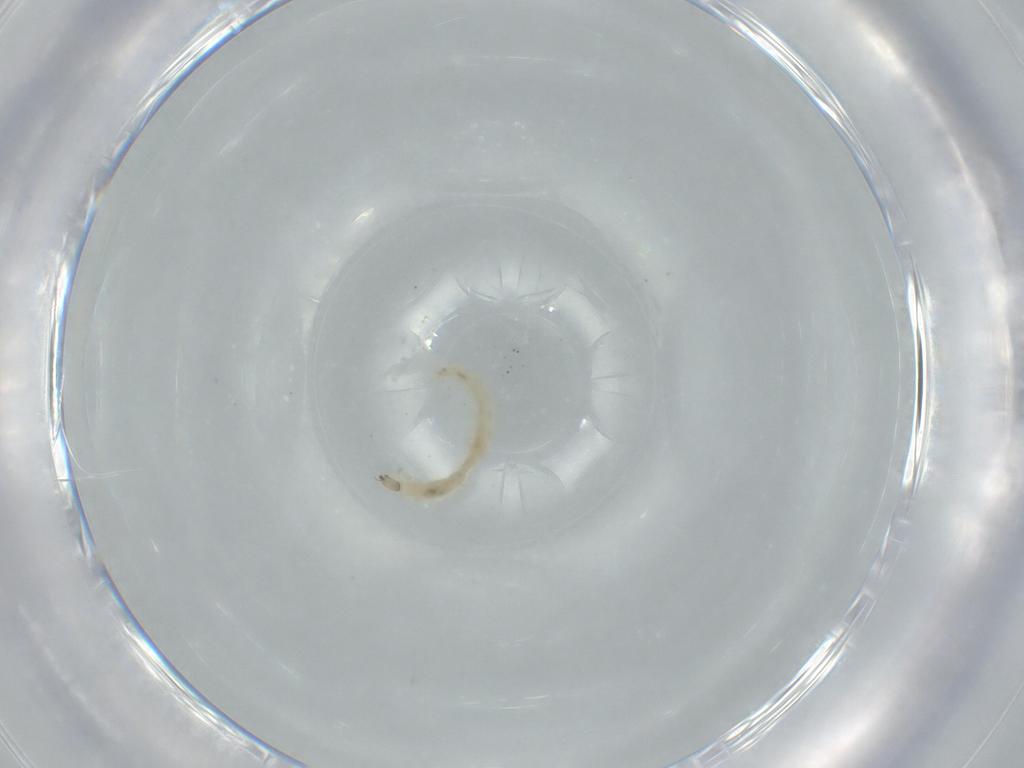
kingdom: Animalia
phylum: Arthropoda
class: Insecta
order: Diptera
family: Chironomidae
